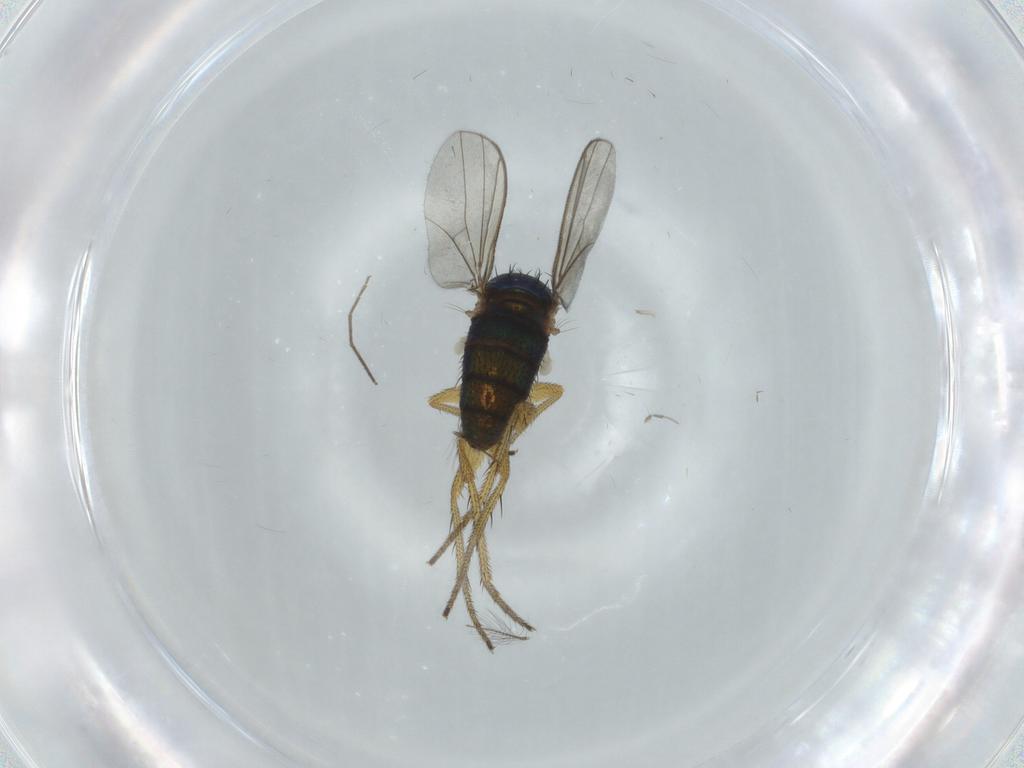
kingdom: Animalia
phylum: Arthropoda
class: Insecta
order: Diptera
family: Dolichopodidae
